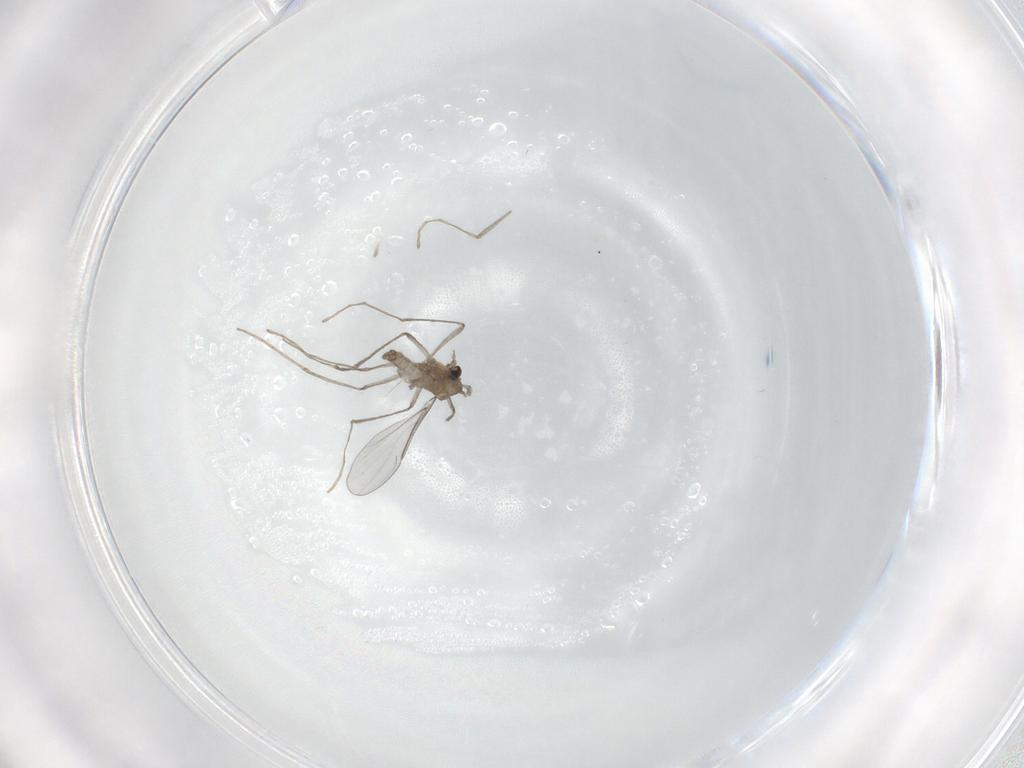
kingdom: Animalia
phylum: Arthropoda
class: Insecta
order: Diptera
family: Cecidomyiidae
